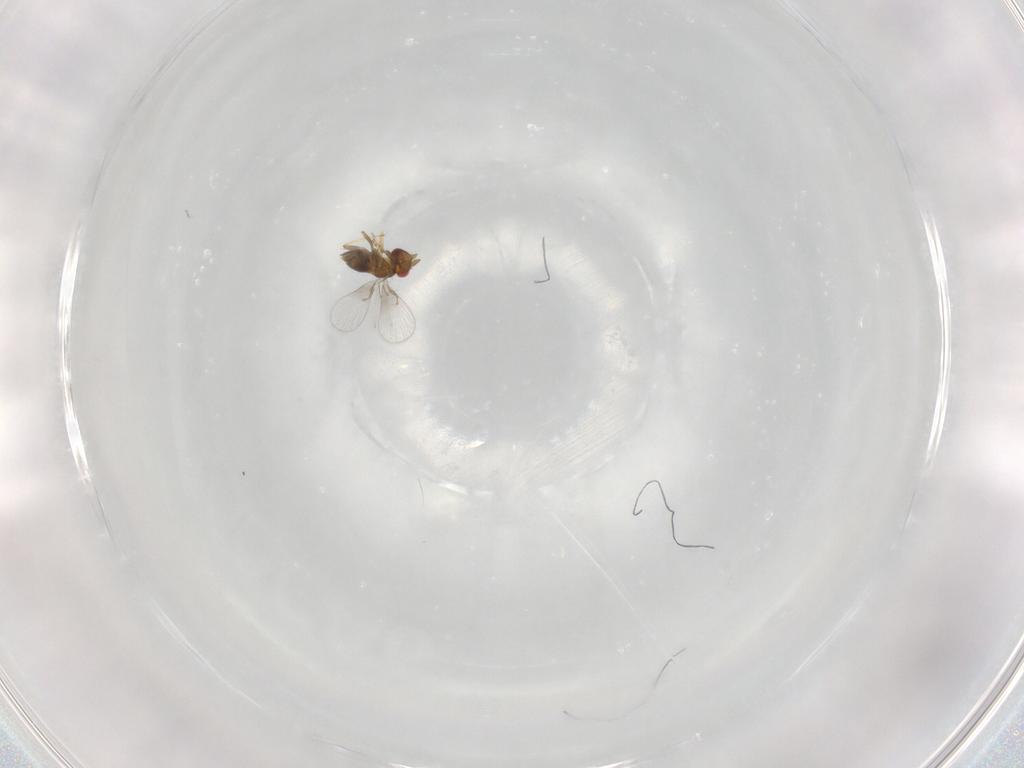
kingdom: Animalia
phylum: Arthropoda
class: Insecta
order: Hymenoptera
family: Trichogrammatidae
